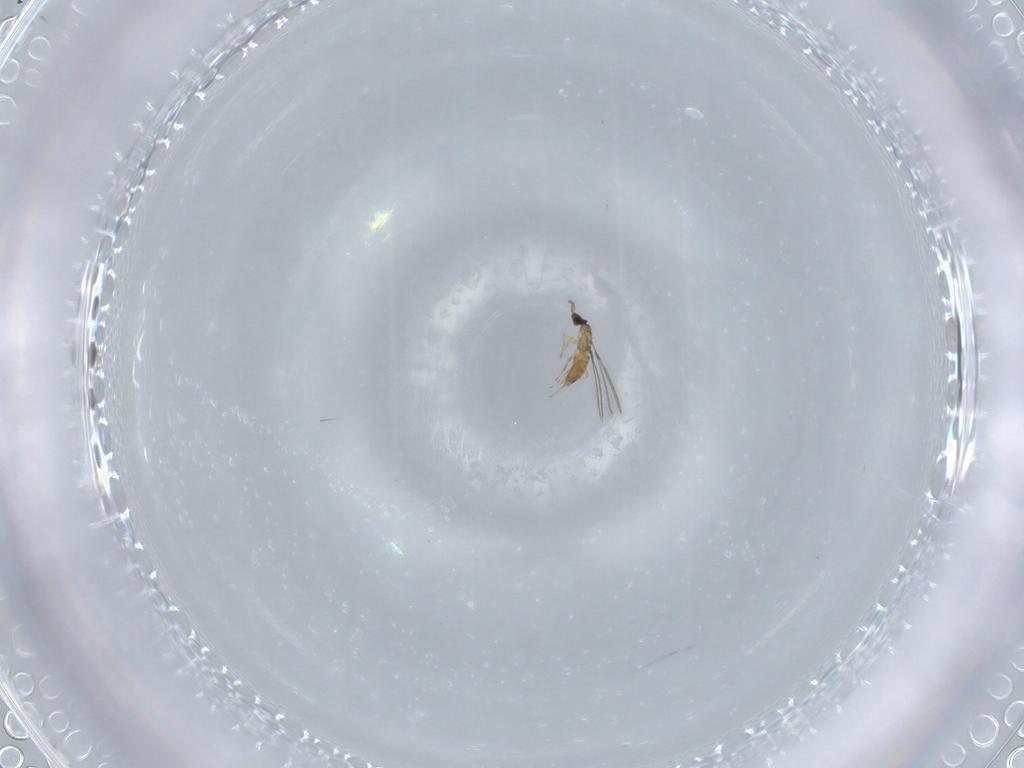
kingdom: Animalia
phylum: Arthropoda
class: Insecta
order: Hymenoptera
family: Mymaridae
